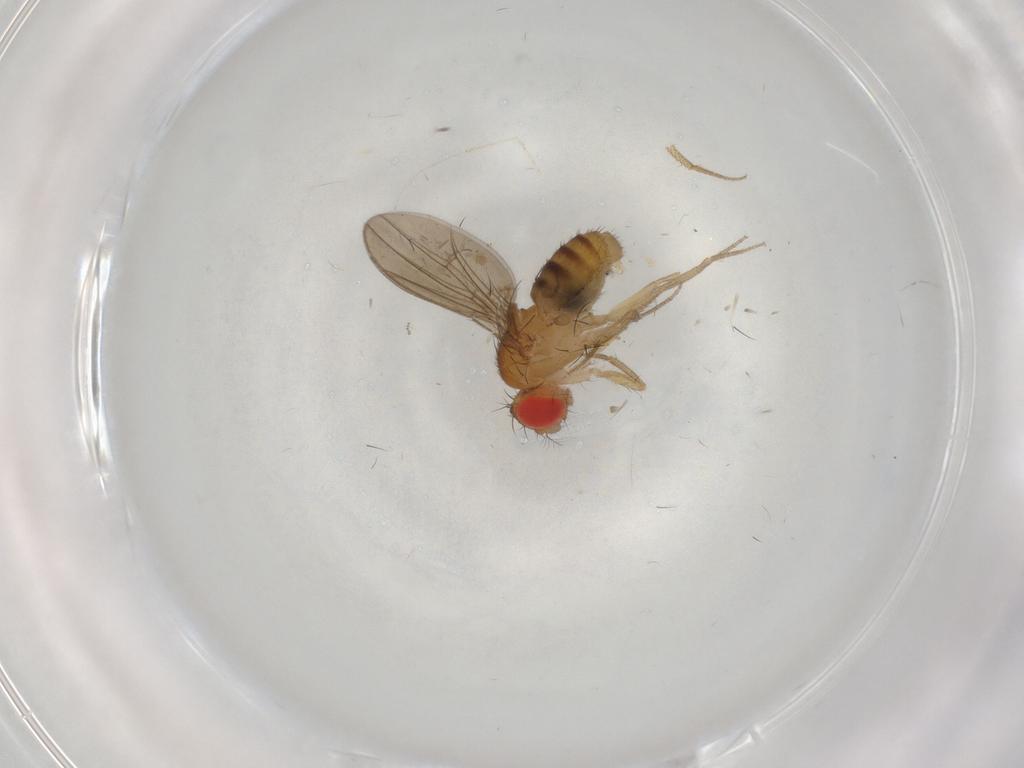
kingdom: Animalia
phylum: Arthropoda
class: Insecta
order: Diptera
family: Drosophilidae
